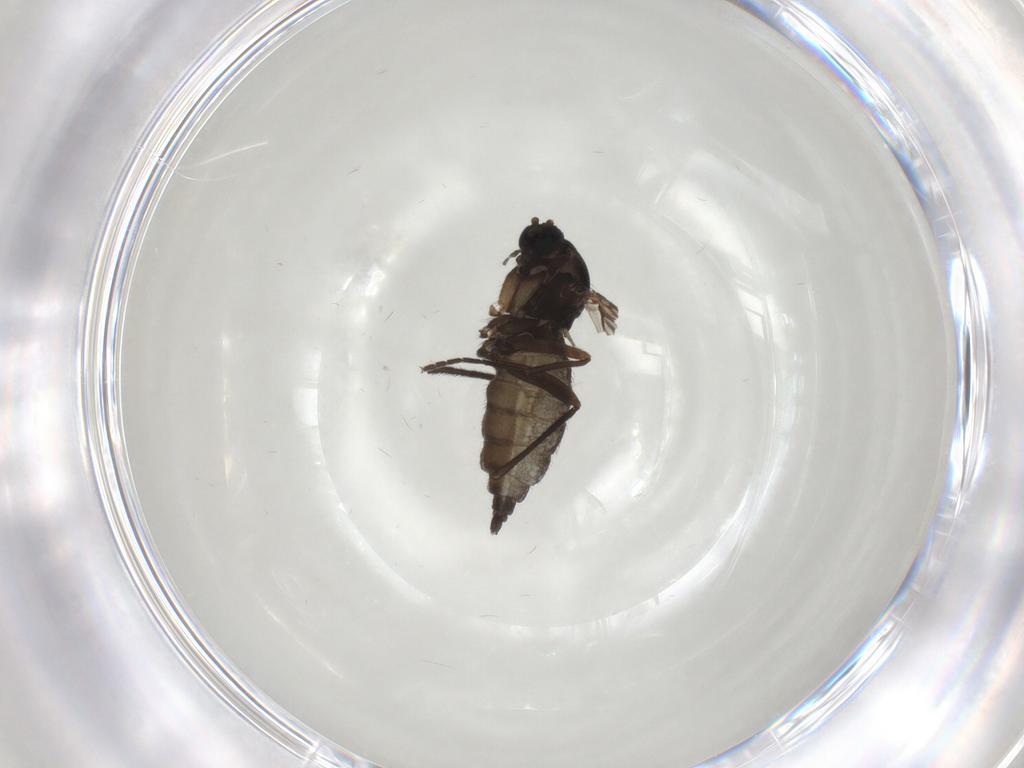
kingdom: Animalia
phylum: Arthropoda
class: Insecta
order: Diptera
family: Sciaridae
